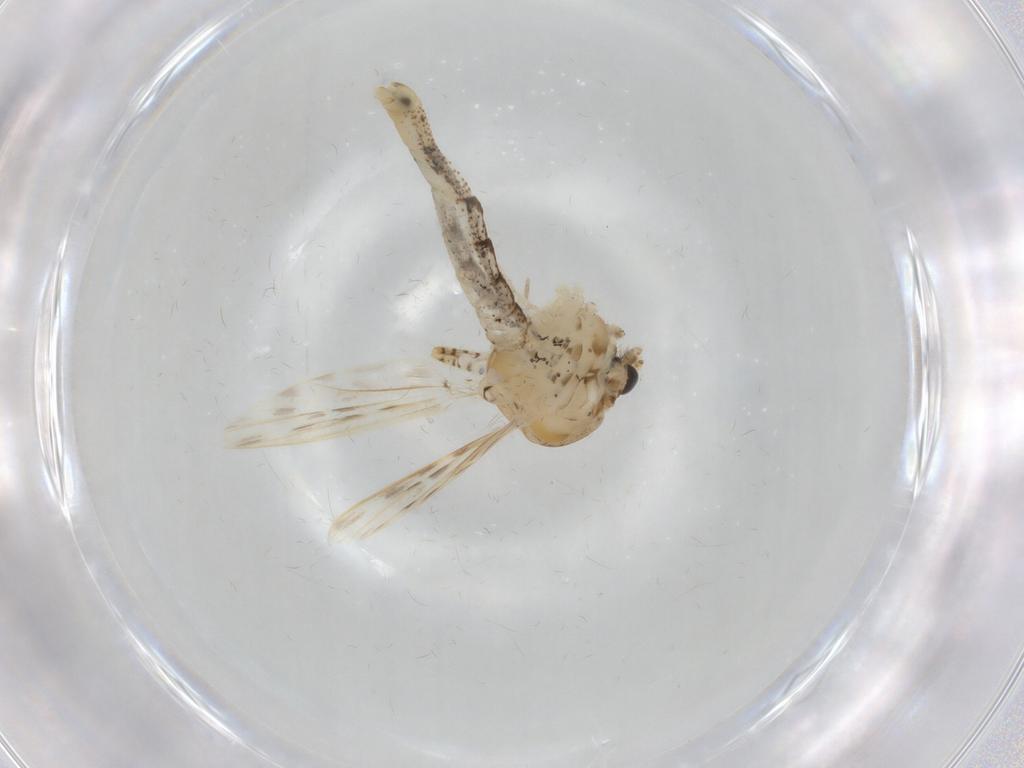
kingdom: Animalia
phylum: Arthropoda
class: Insecta
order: Diptera
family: Chaoboridae
